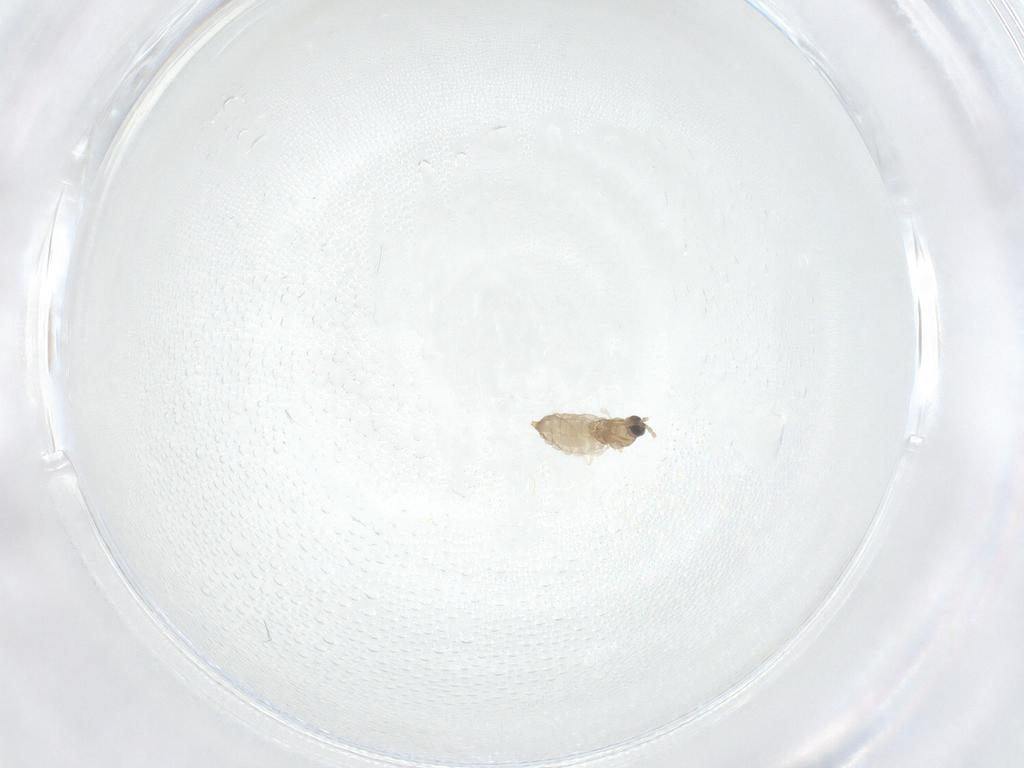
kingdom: Animalia
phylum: Arthropoda
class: Insecta
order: Diptera
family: Cecidomyiidae
